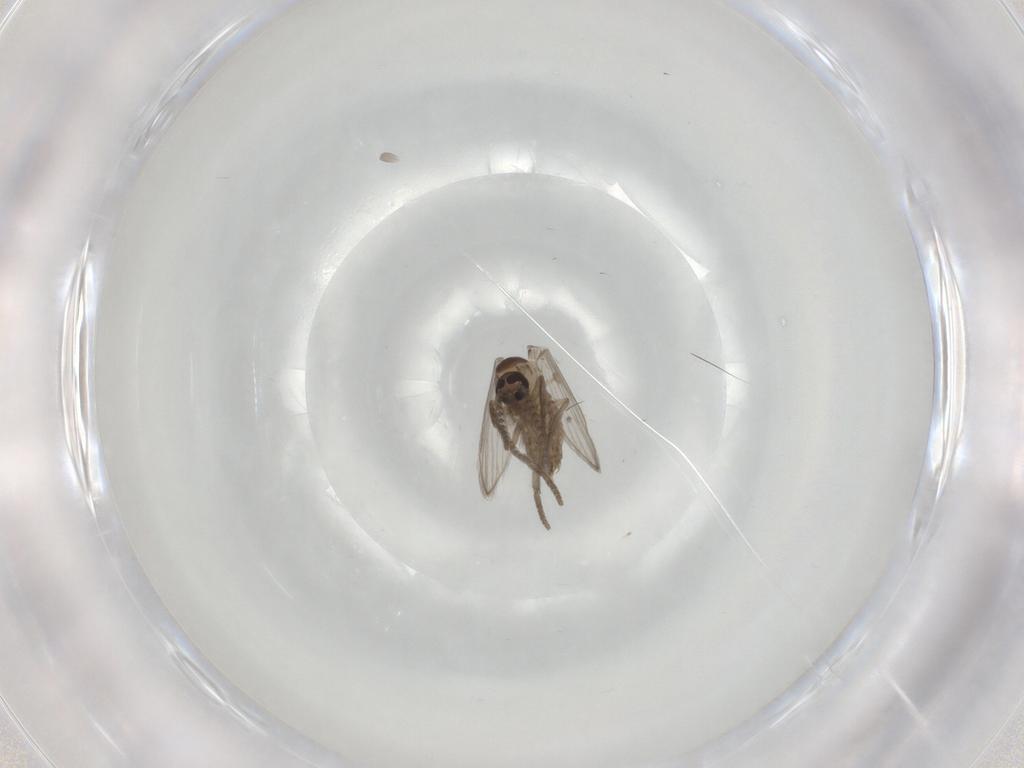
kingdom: Animalia
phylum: Arthropoda
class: Insecta
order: Diptera
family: Psychodidae
